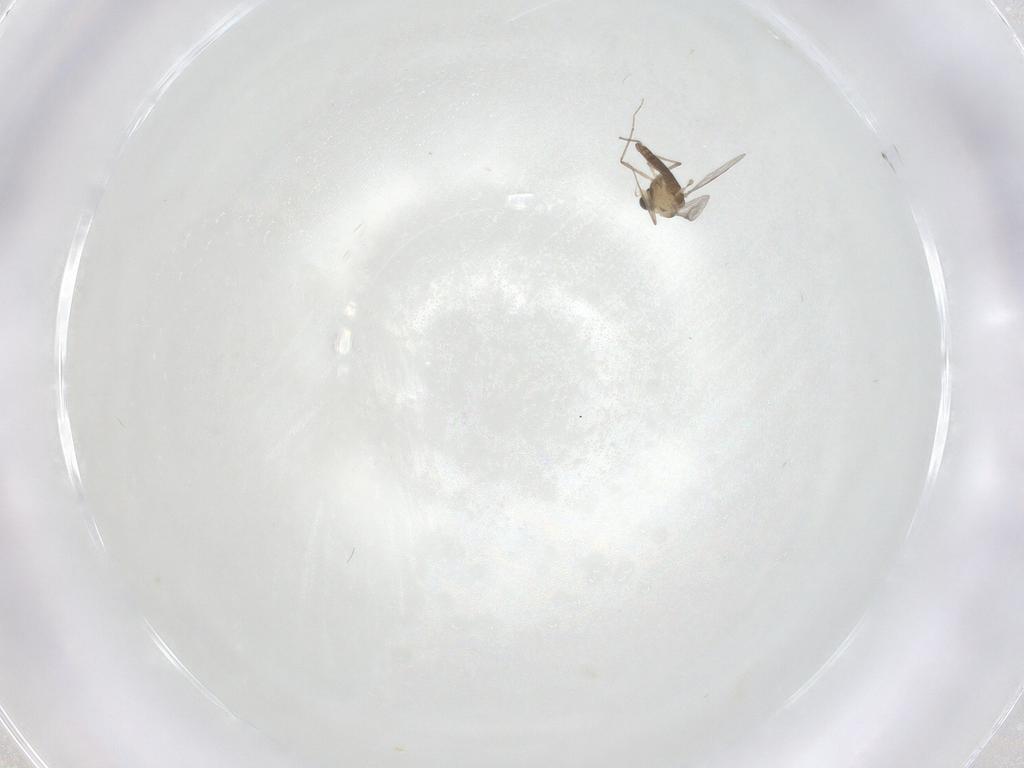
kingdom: Animalia
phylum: Arthropoda
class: Insecta
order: Diptera
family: Chironomidae
